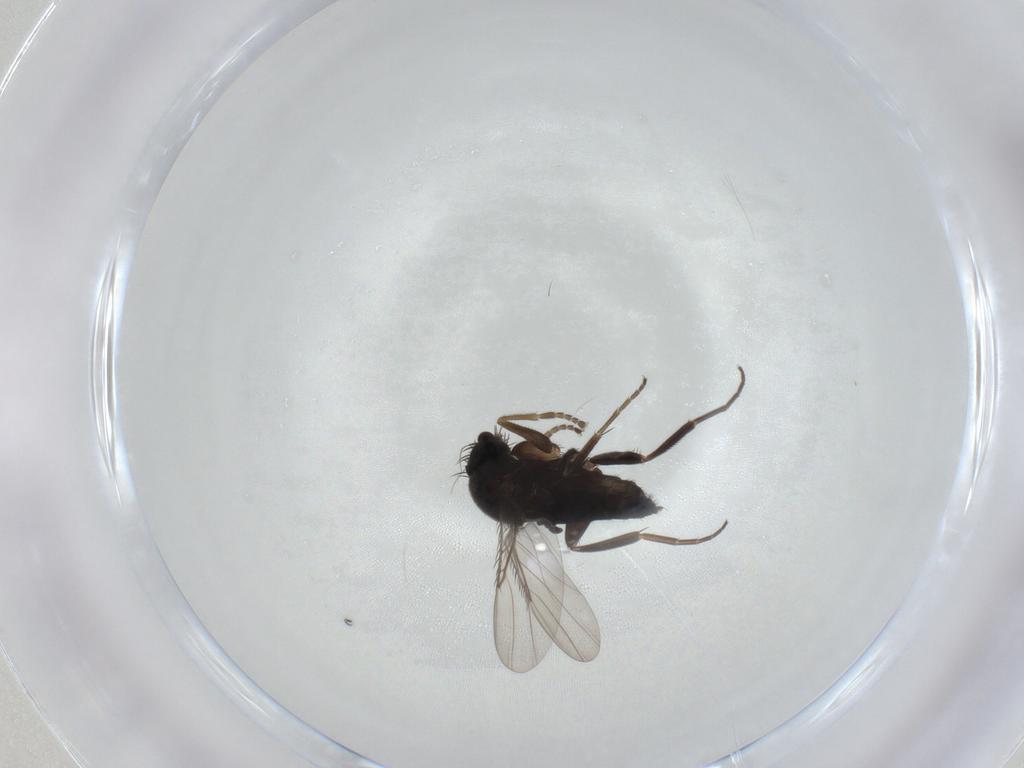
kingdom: Animalia
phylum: Arthropoda
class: Insecta
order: Diptera
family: Phoridae
